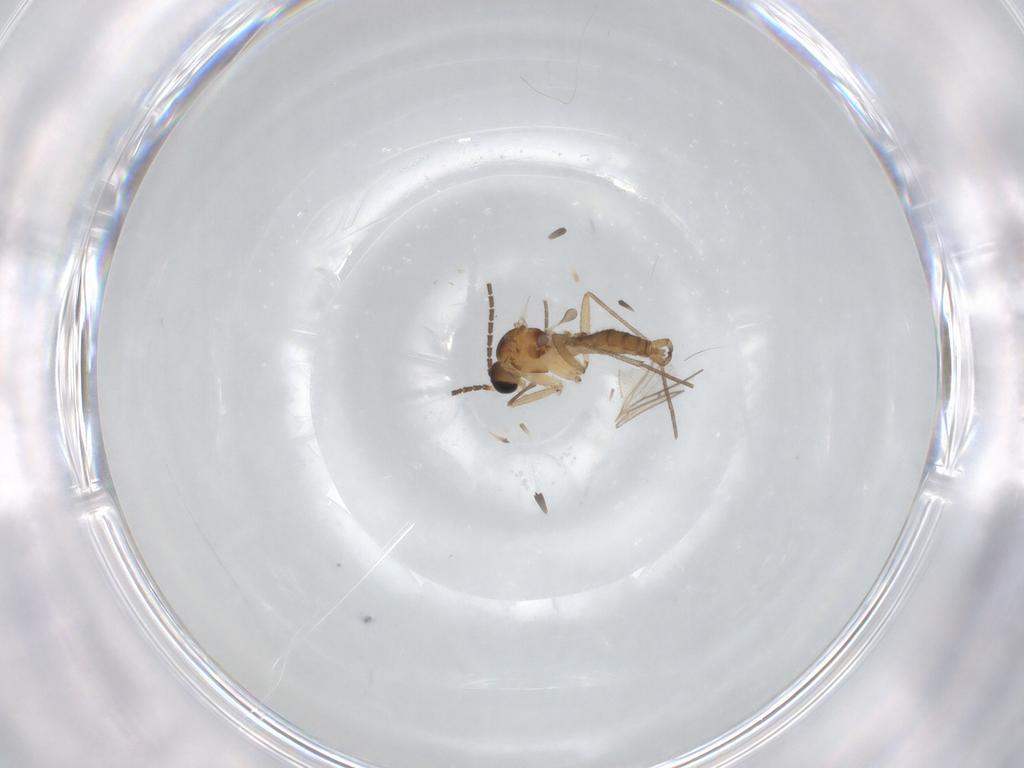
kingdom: Animalia
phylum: Arthropoda
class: Insecta
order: Diptera
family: Sciaridae
